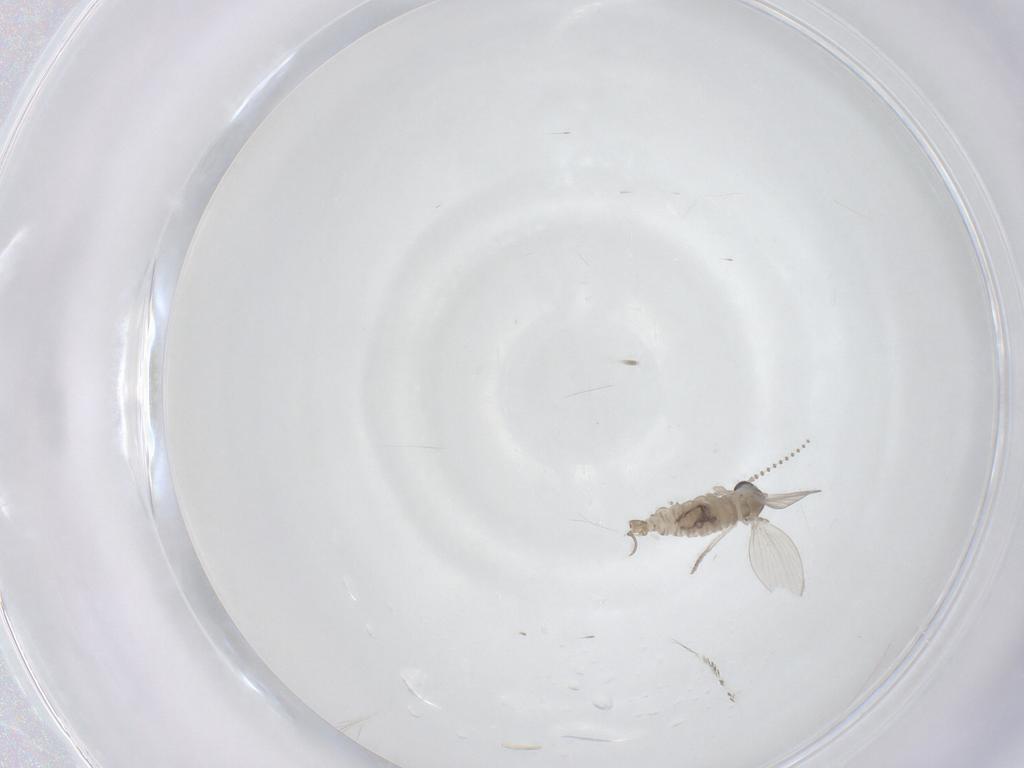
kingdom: Animalia
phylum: Arthropoda
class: Insecta
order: Diptera
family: Psychodidae
